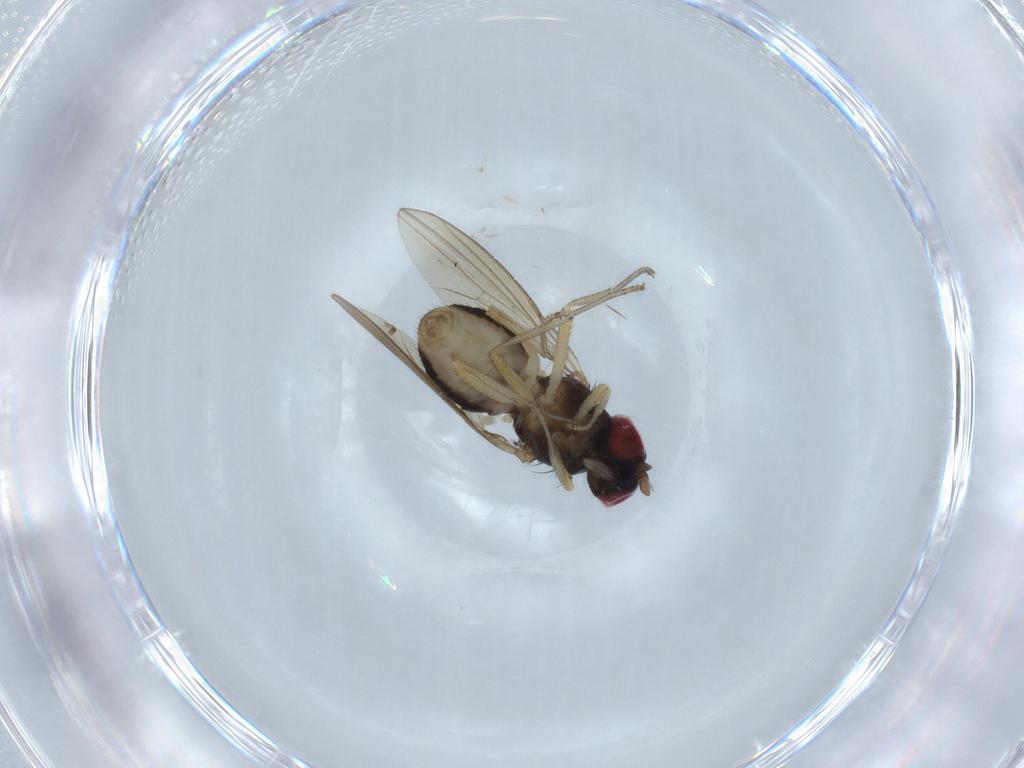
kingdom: Animalia
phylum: Arthropoda
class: Insecta
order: Diptera
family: Lauxaniidae
